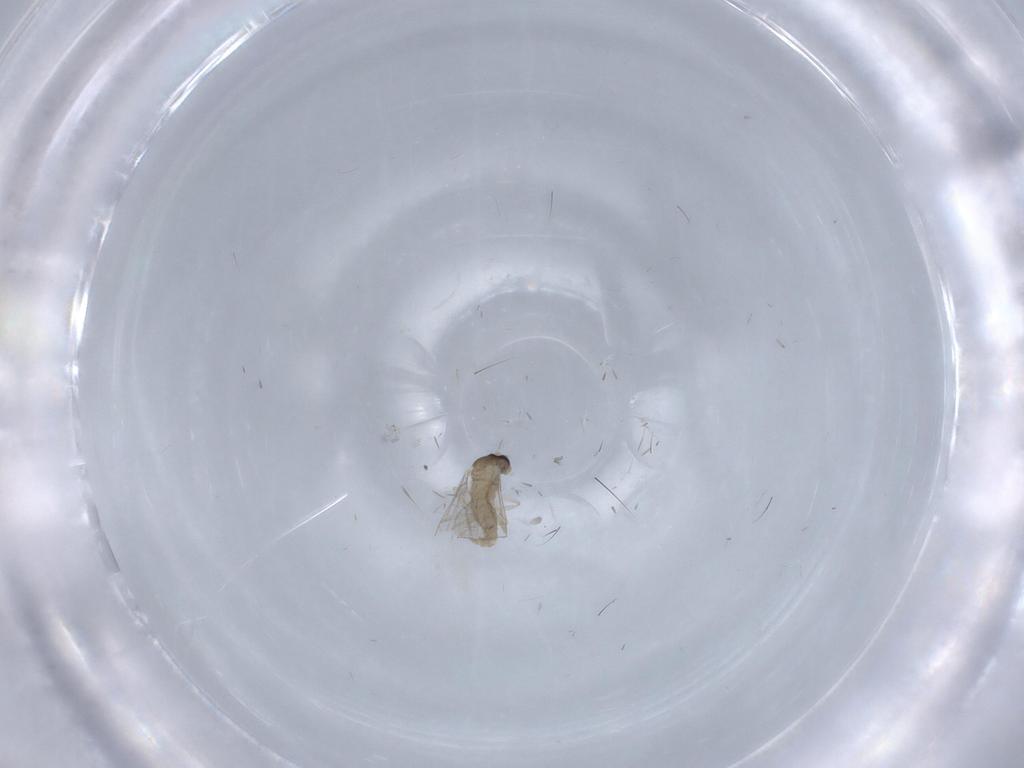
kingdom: Animalia
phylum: Arthropoda
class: Insecta
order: Diptera
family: Cecidomyiidae
